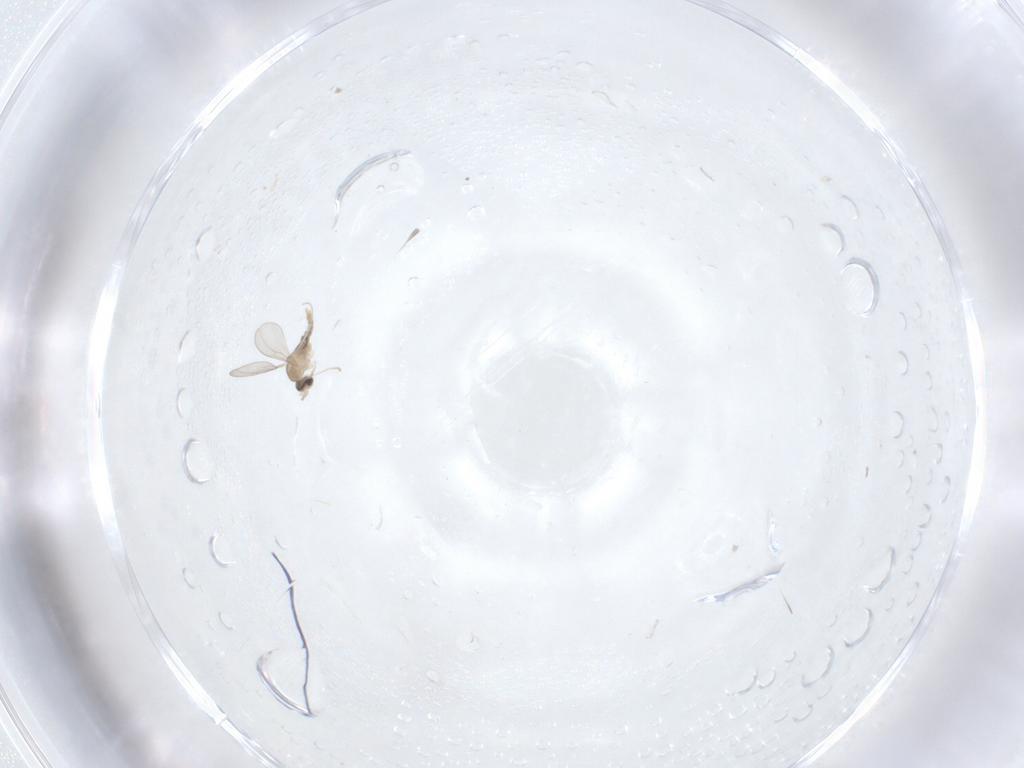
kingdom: Animalia
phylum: Arthropoda
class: Insecta
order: Diptera
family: Cecidomyiidae
